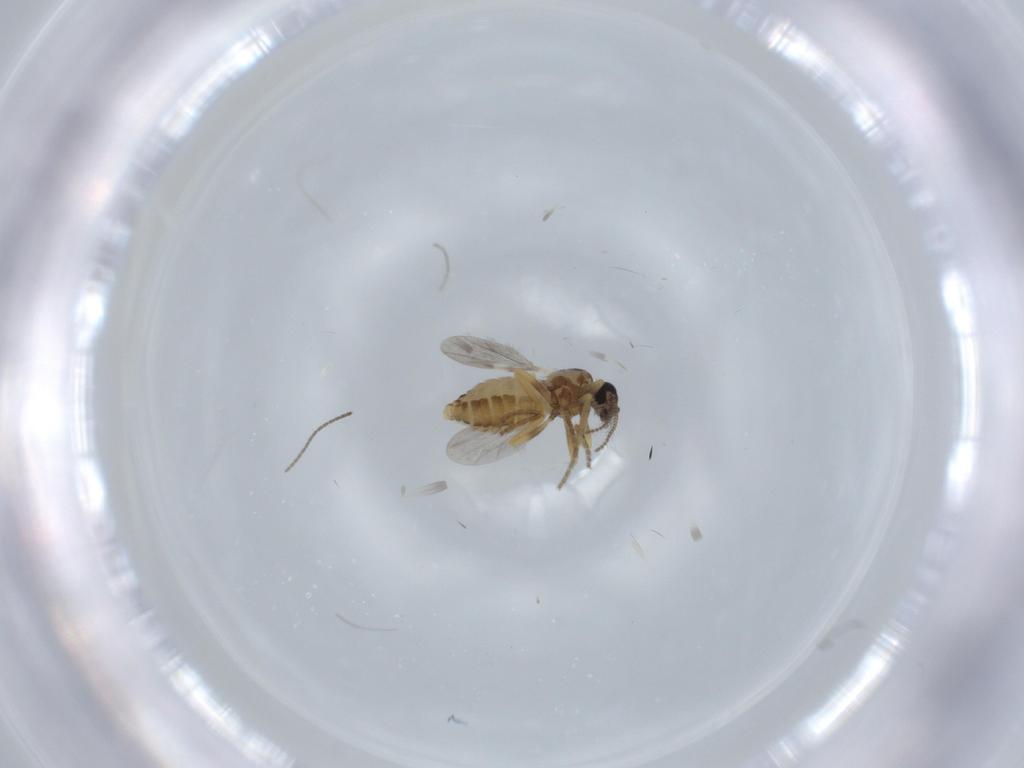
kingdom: Animalia
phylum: Arthropoda
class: Insecta
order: Diptera
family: Ceratopogonidae
